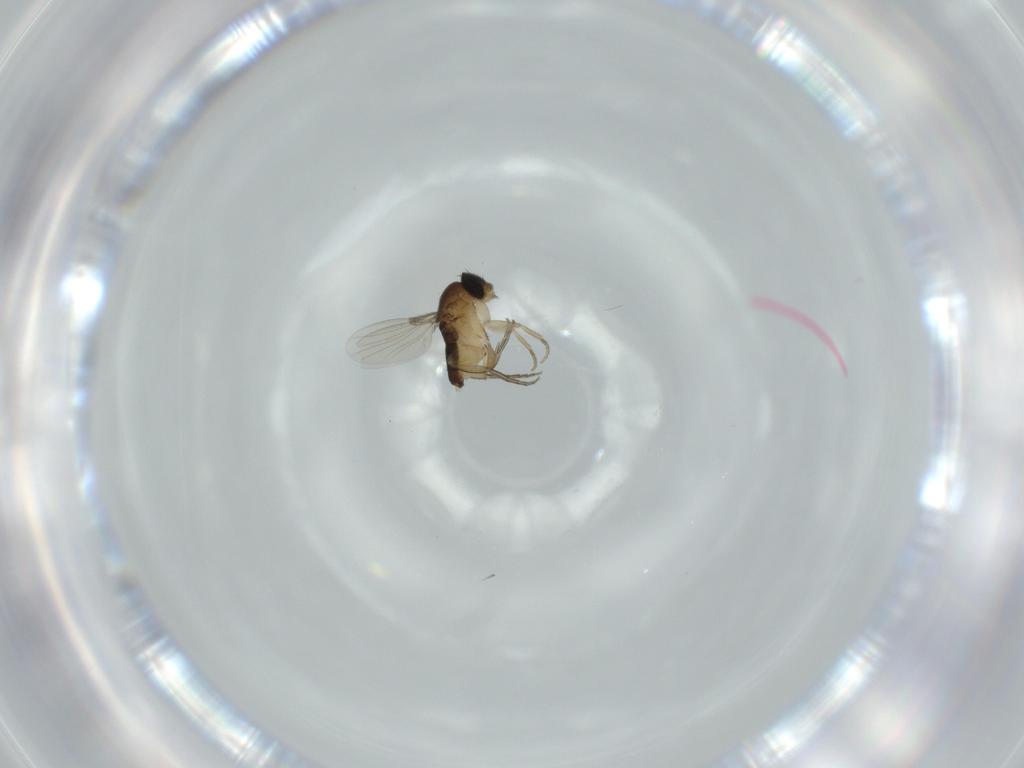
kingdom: Animalia
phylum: Arthropoda
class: Insecta
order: Diptera
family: Phoridae
